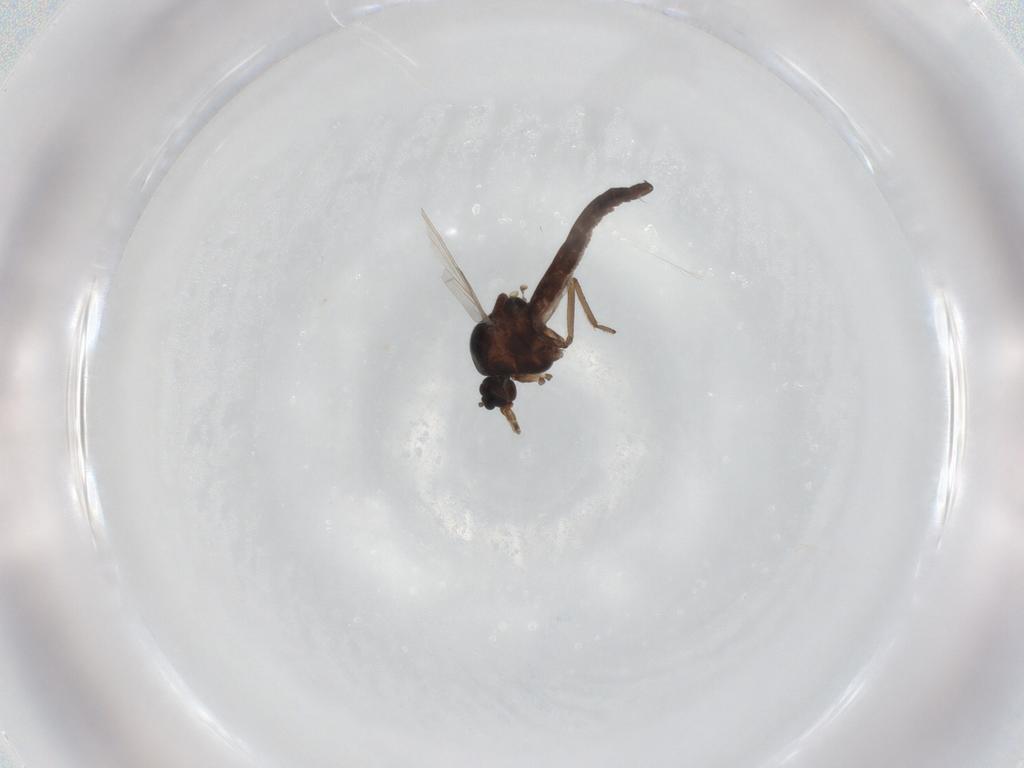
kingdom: Animalia
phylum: Arthropoda
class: Insecta
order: Diptera
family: Ceratopogonidae
